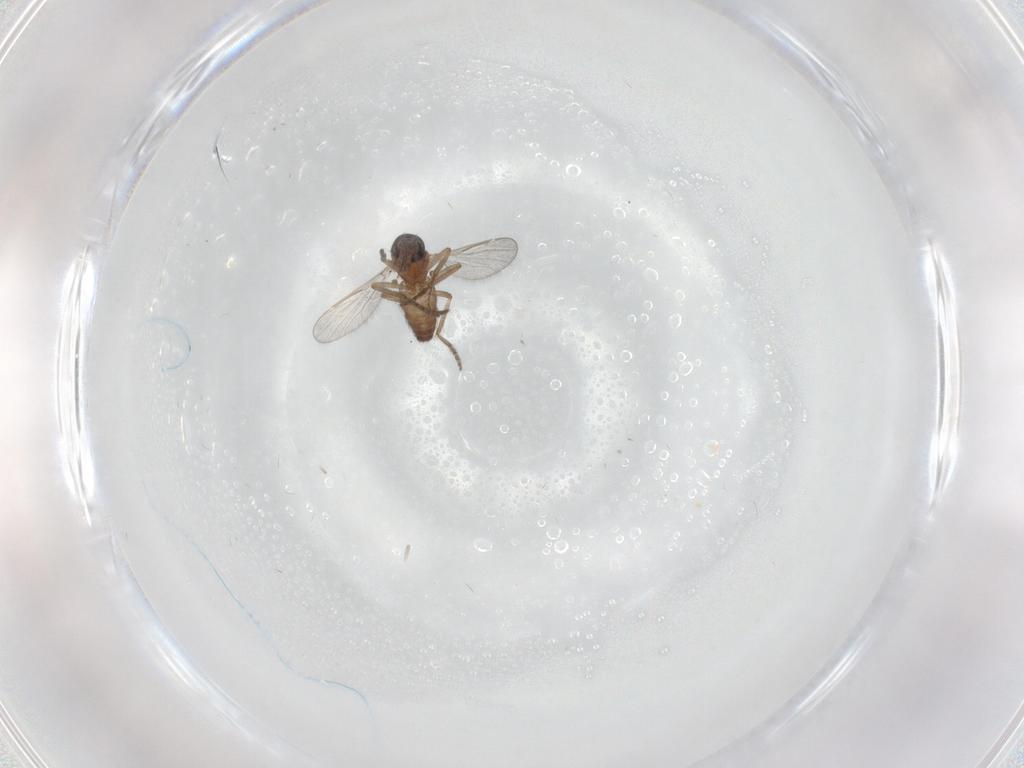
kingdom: Animalia
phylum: Arthropoda
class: Insecta
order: Diptera
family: Ceratopogonidae
